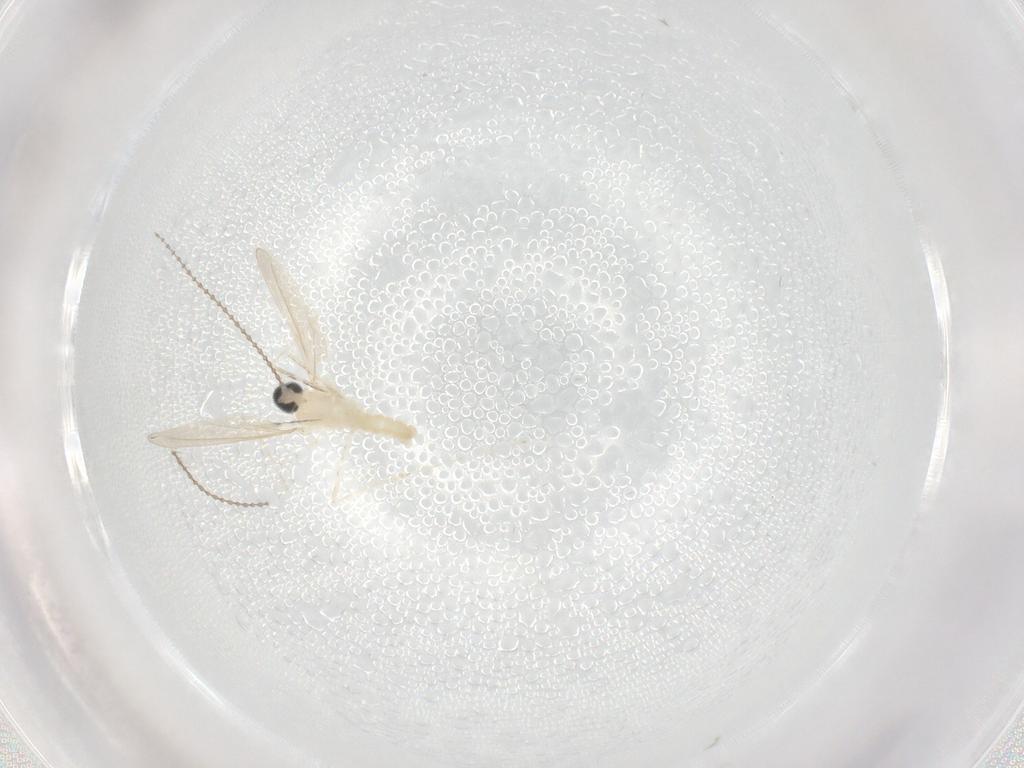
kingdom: Animalia
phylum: Arthropoda
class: Insecta
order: Diptera
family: Cecidomyiidae
